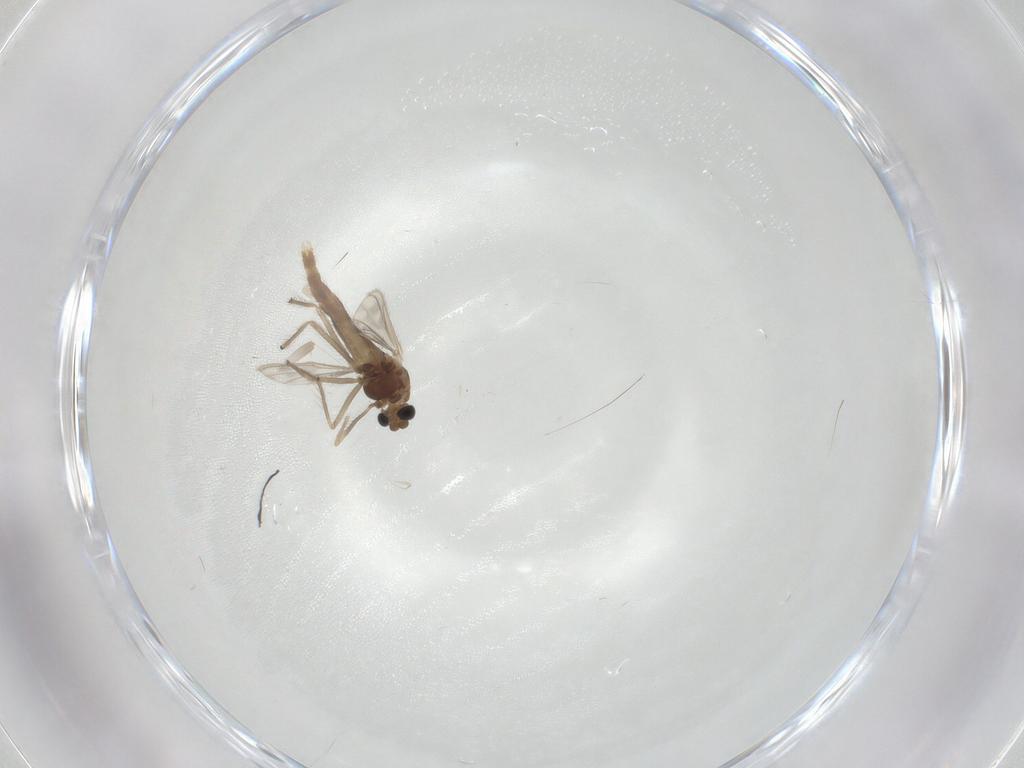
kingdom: Animalia
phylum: Arthropoda
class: Insecta
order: Diptera
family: Chironomidae
